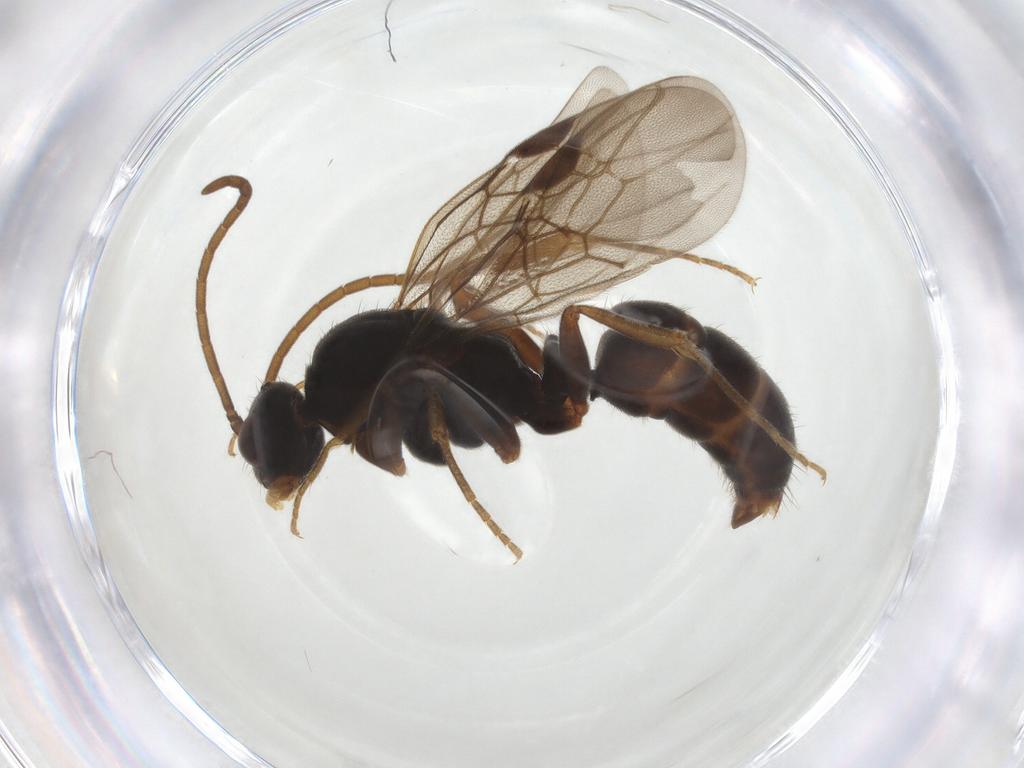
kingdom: Animalia
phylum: Arthropoda
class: Insecta
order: Hymenoptera
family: Formicidae
